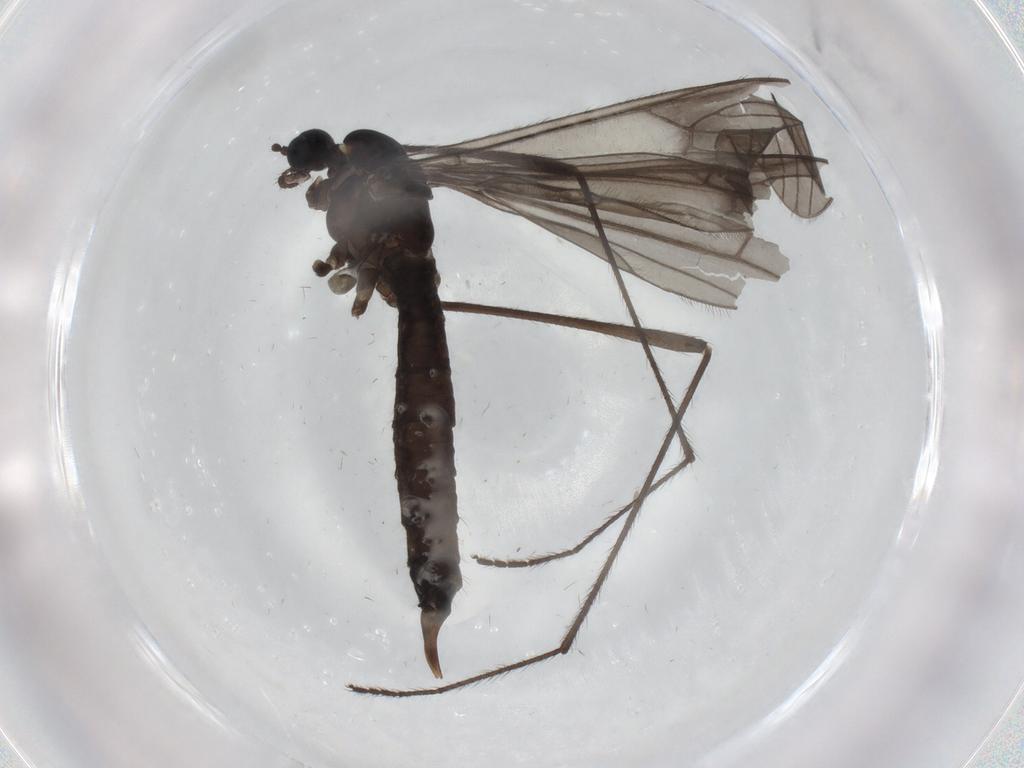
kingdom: Animalia
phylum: Arthropoda
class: Insecta
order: Diptera
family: Limoniidae
